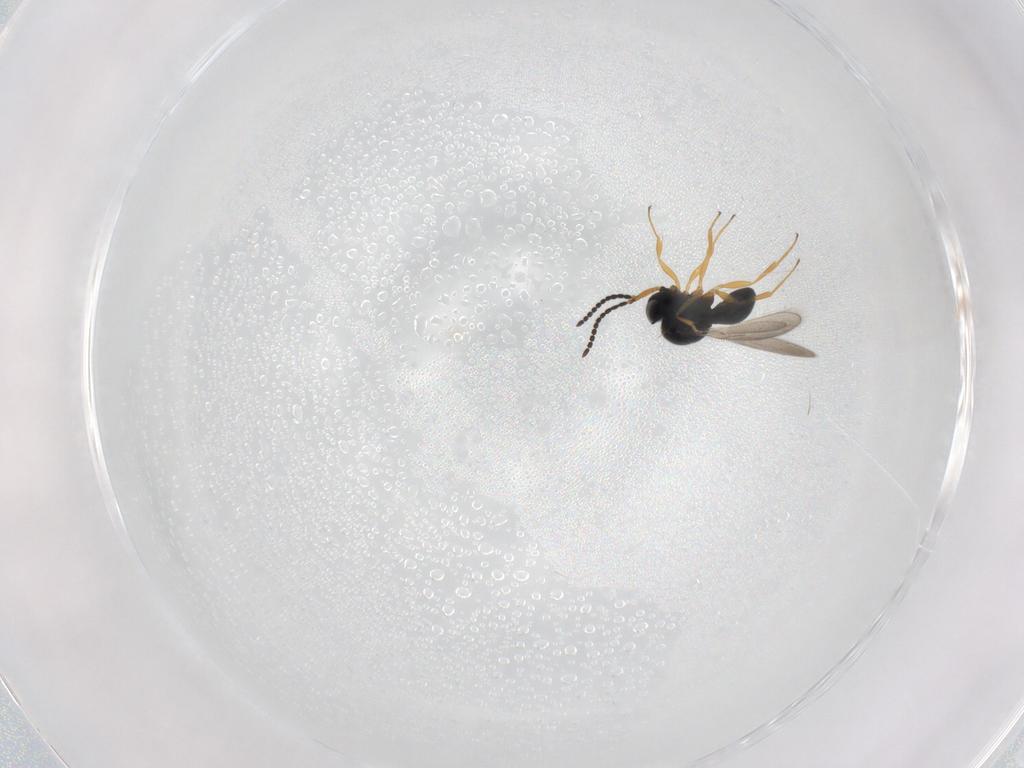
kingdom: Animalia
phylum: Arthropoda
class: Insecta
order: Hymenoptera
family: Scelionidae
